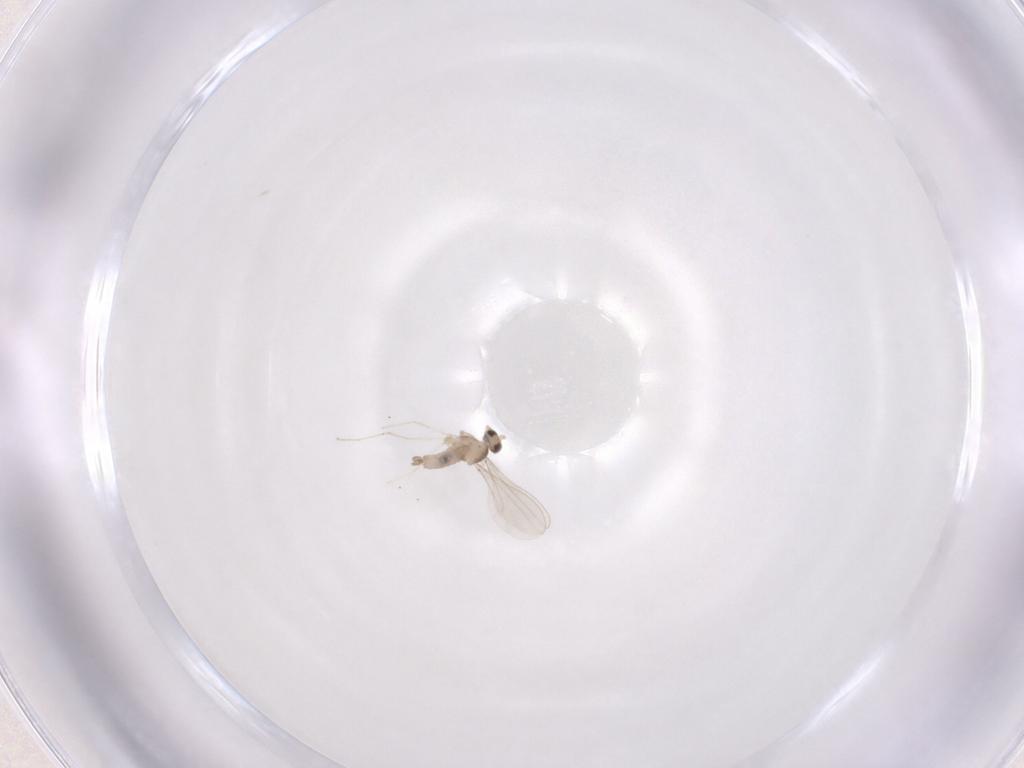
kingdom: Animalia
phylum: Arthropoda
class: Insecta
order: Diptera
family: Cecidomyiidae
